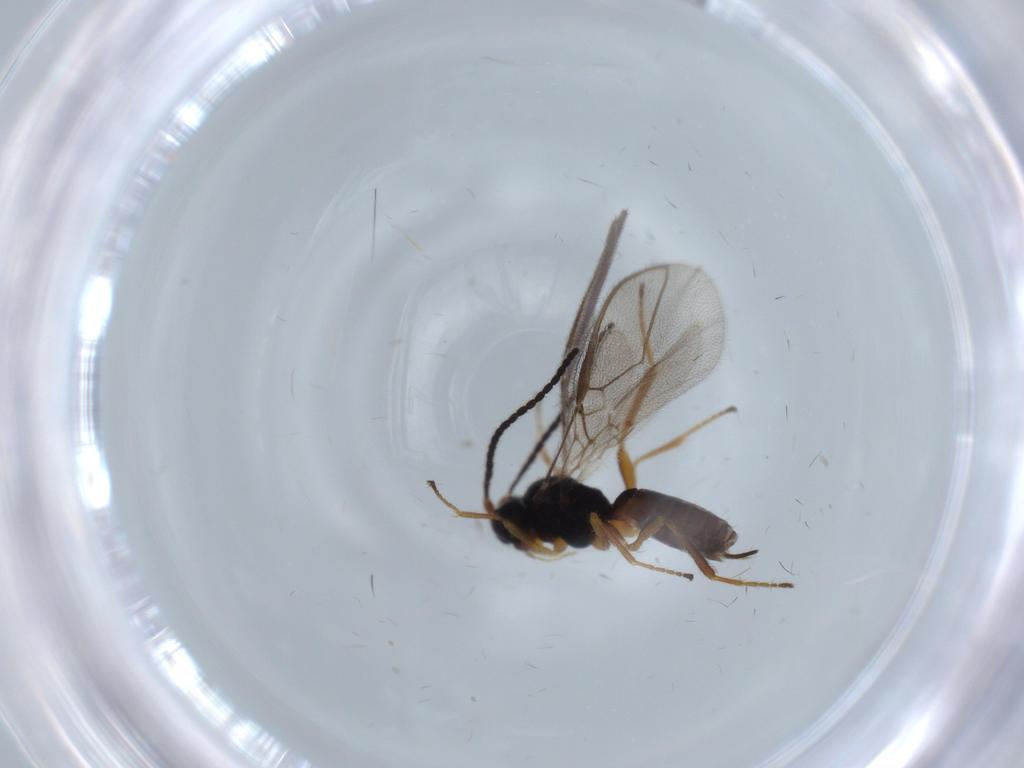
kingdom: Animalia
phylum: Arthropoda
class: Insecta
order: Hymenoptera
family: Braconidae
